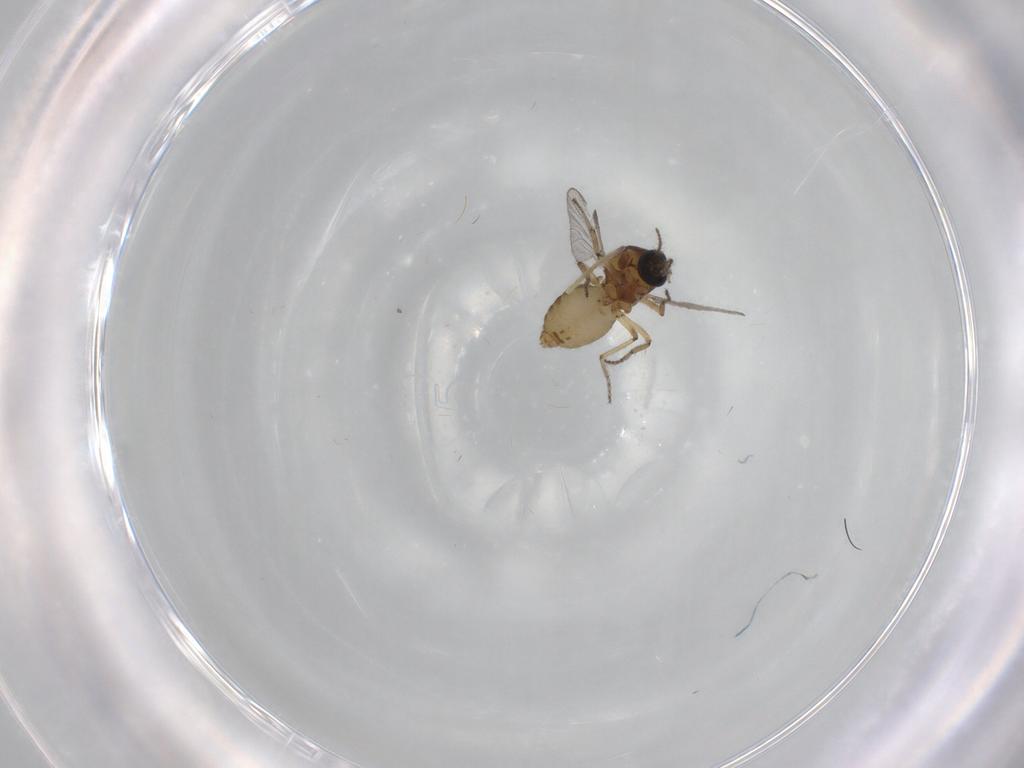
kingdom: Animalia
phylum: Arthropoda
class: Insecta
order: Diptera
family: Ceratopogonidae
